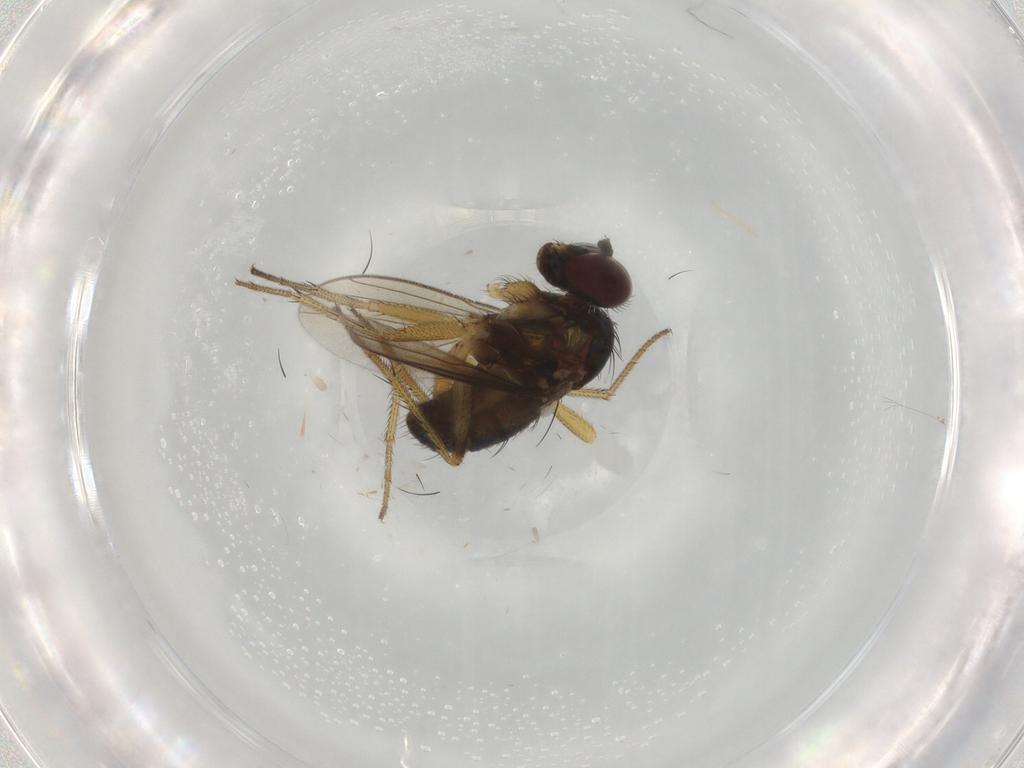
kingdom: Animalia
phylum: Arthropoda
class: Insecta
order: Diptera
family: Dolichopodidae
